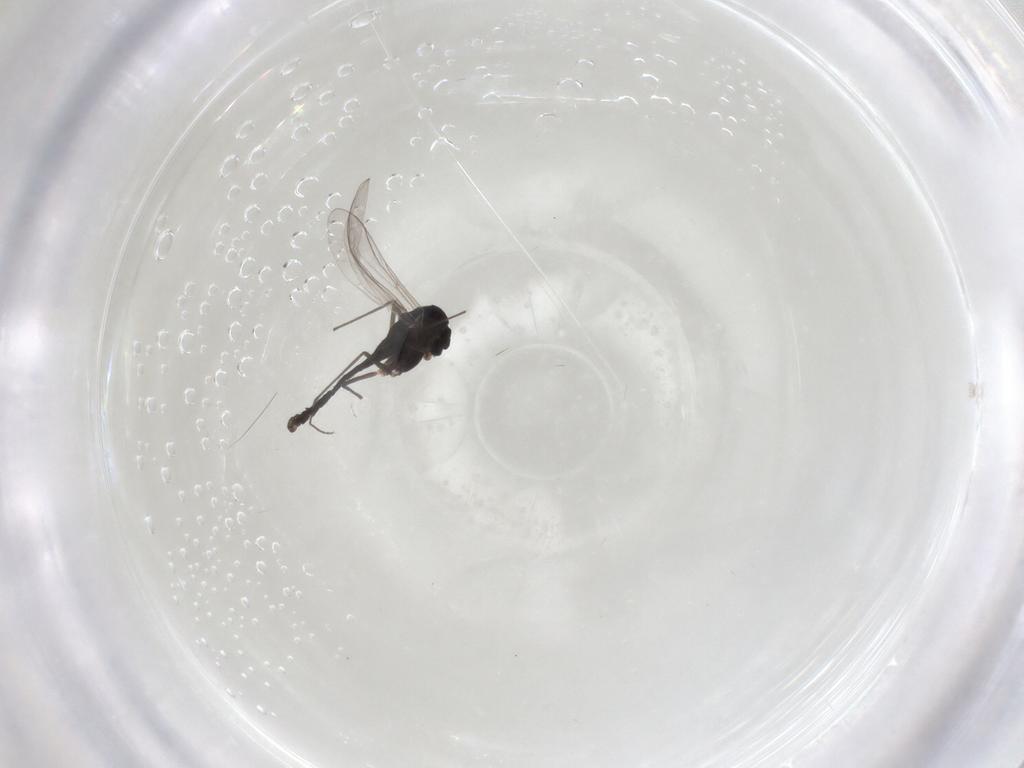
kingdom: Animalia
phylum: Arthropoda
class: Insecta
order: Diptera
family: Chironomidae
